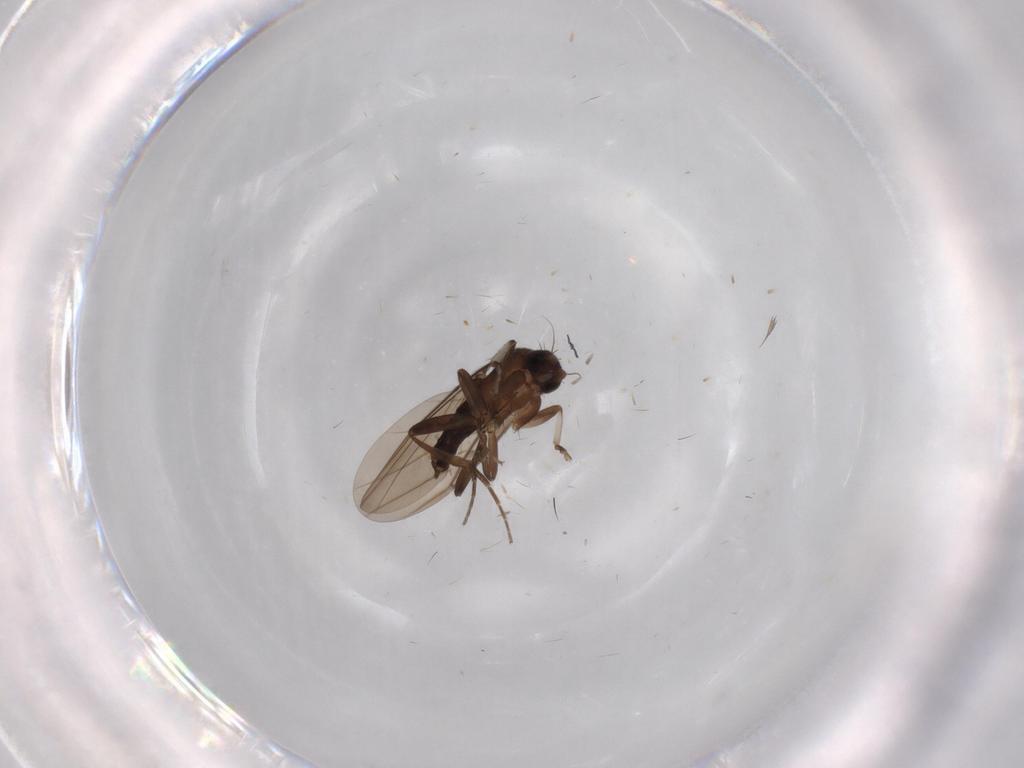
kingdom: Animalia
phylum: Arthropoda
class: Insecta
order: Diptera
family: Phoridae
